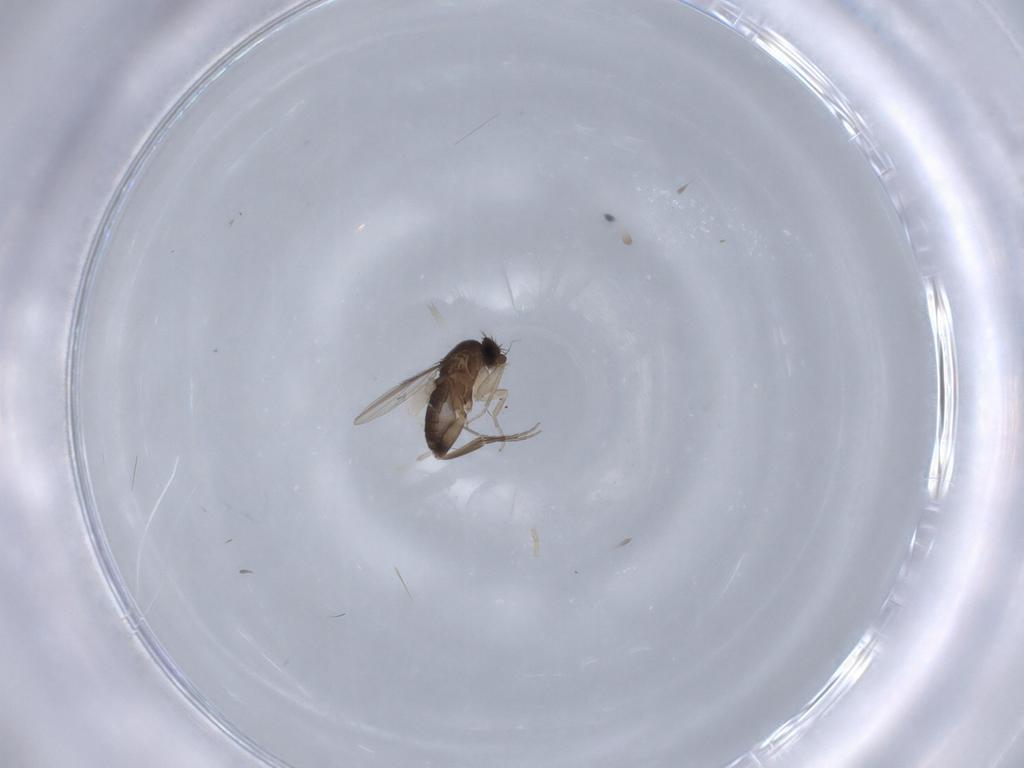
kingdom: Animalia
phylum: Arthropoda
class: Insecta
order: Diptera
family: Phoridae
